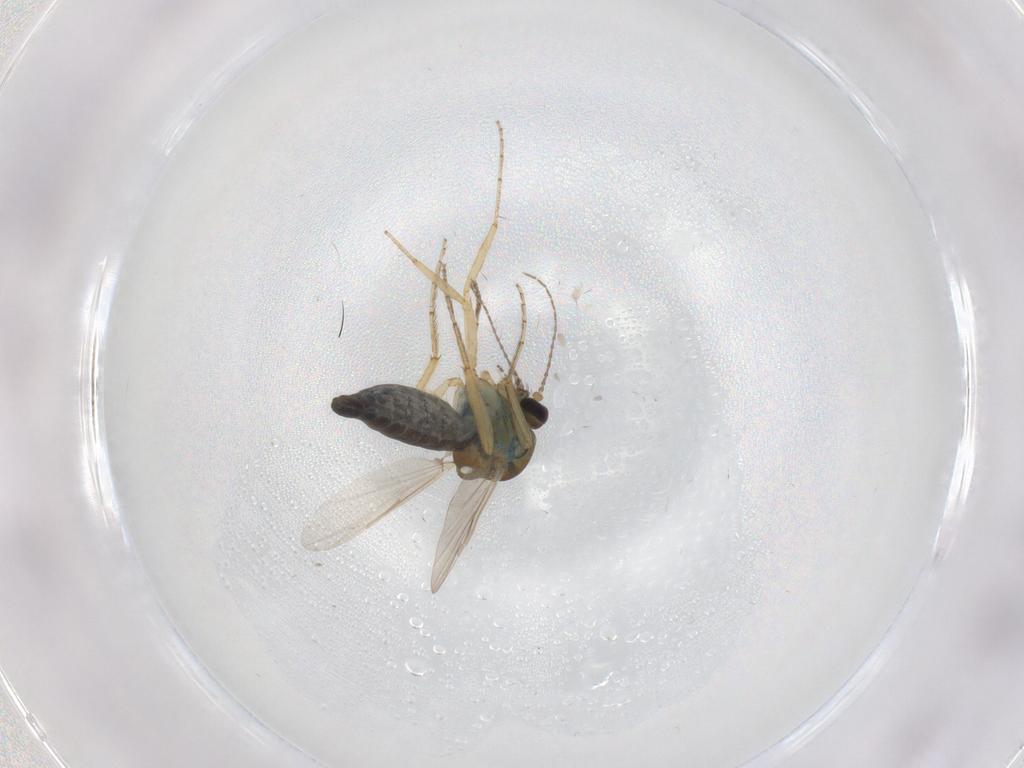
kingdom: Animalia
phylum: Arthropoda
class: Insecta
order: Diptera
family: Ceratopogonidae
